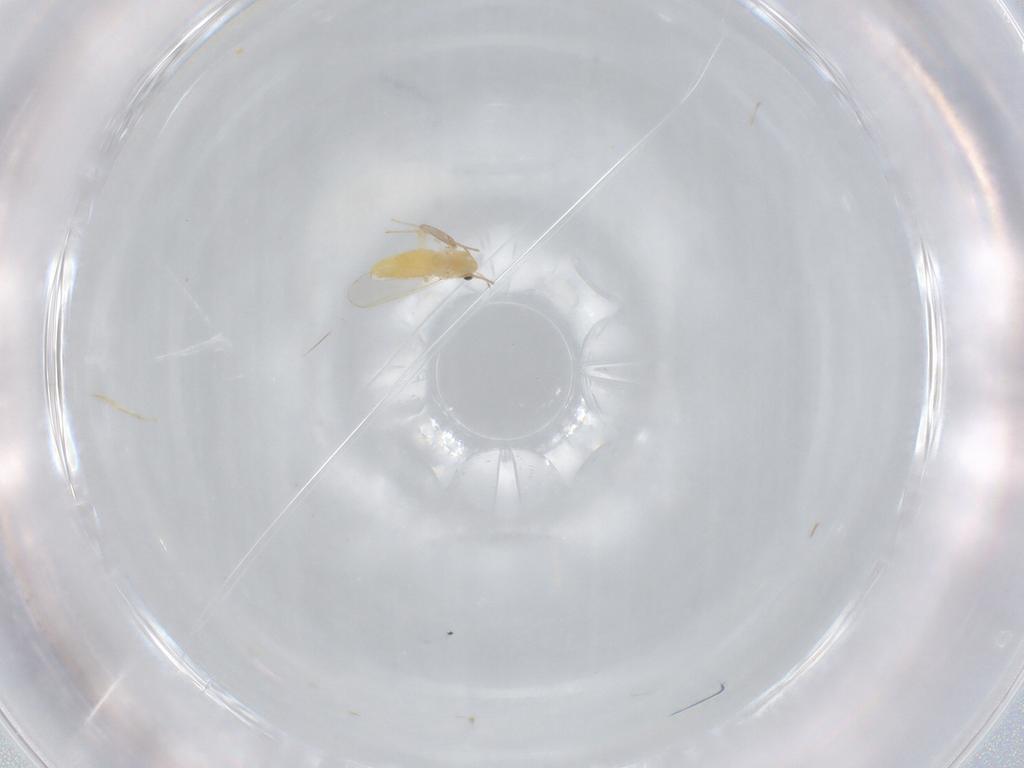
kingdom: Animalia
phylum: Arthropoda
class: Insecta
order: Diptera
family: Chironomidae
